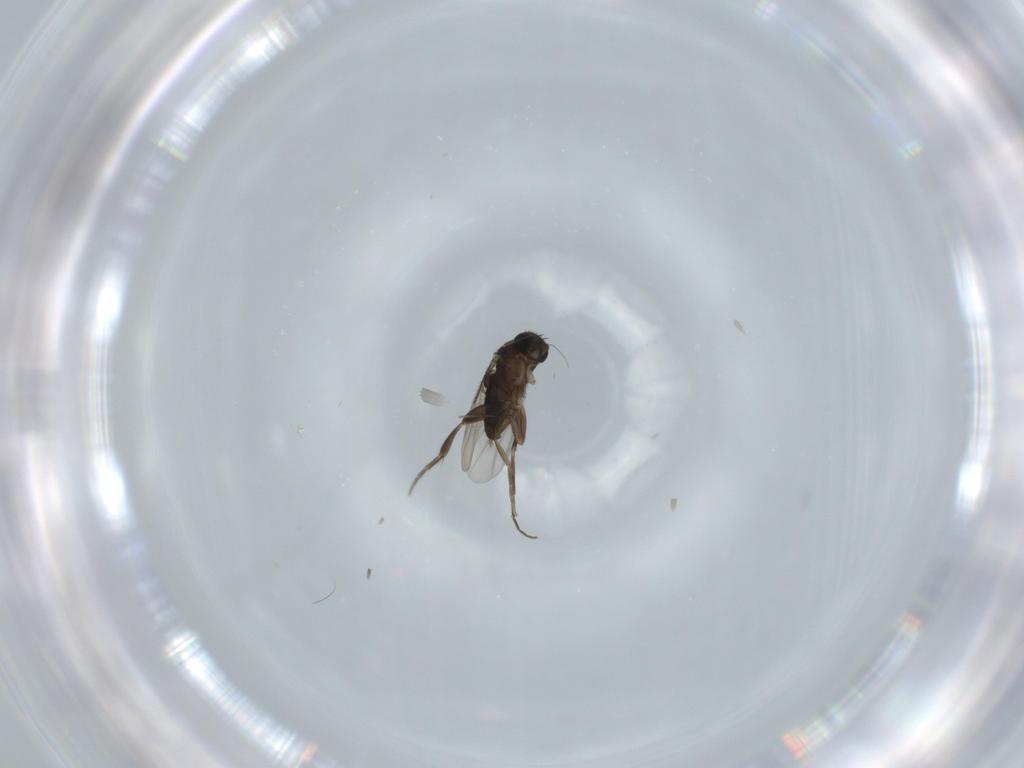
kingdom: Animalia
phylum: Arthropoda
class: Insecta
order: Diptera
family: Phoridae
